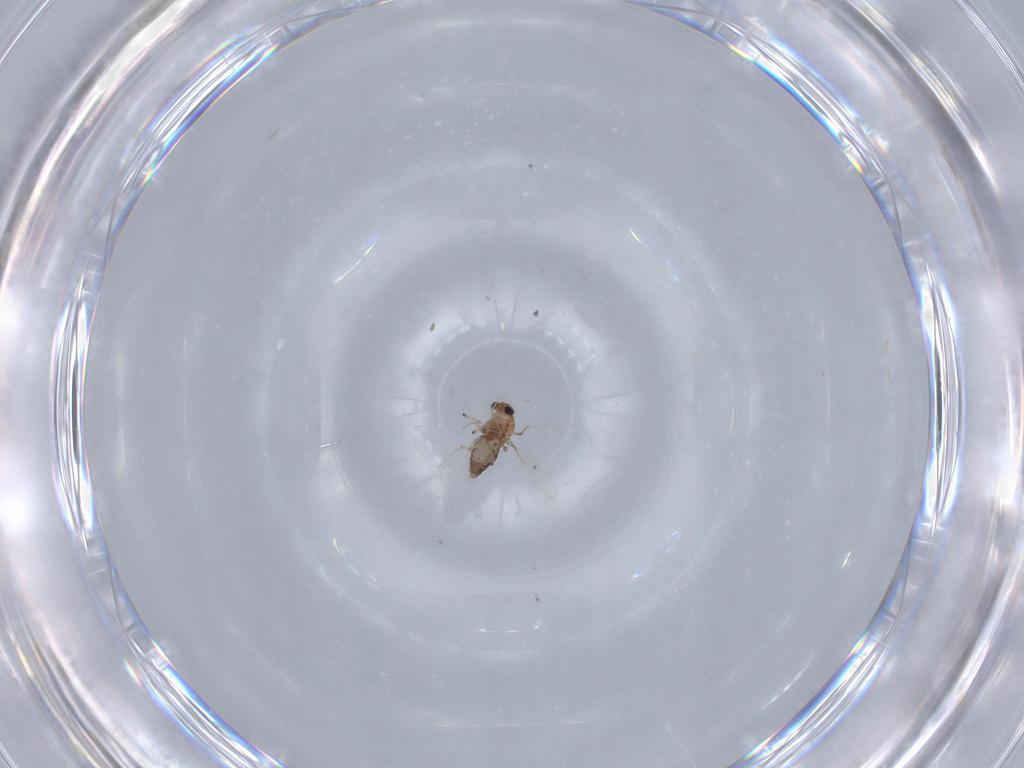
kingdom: Animalia
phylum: Arthropoda
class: Insecta
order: Diptera
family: Chironomidae
